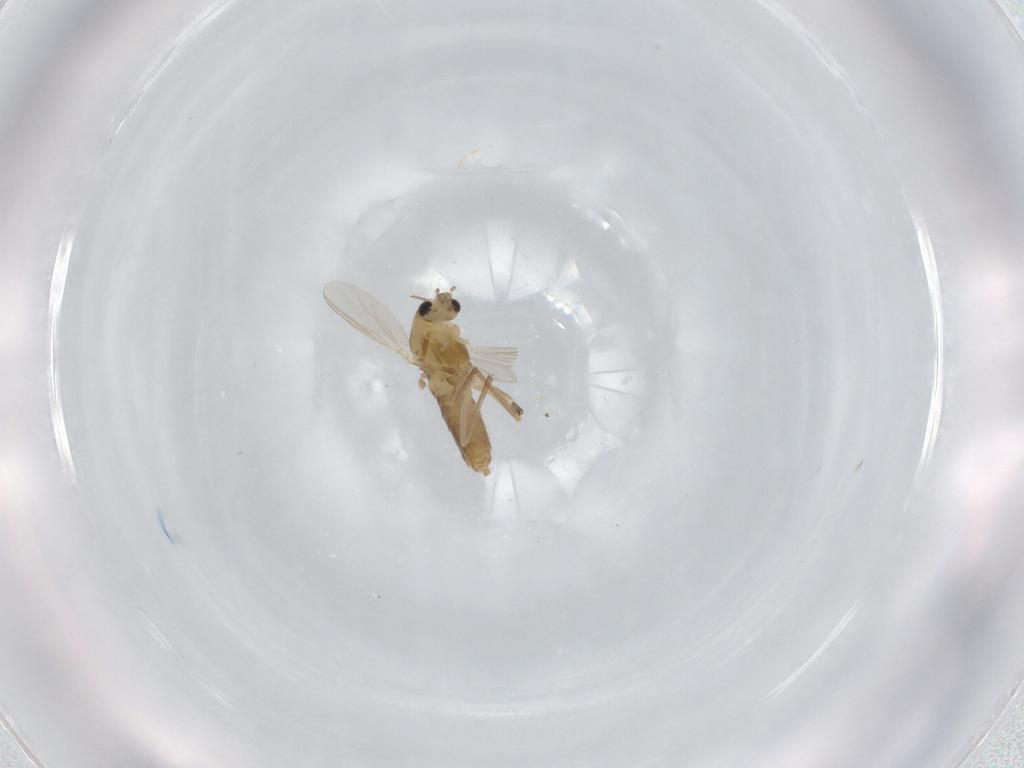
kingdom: Animalia
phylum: Arthropoda
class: Insecta
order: Diptera
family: Chironomidae
